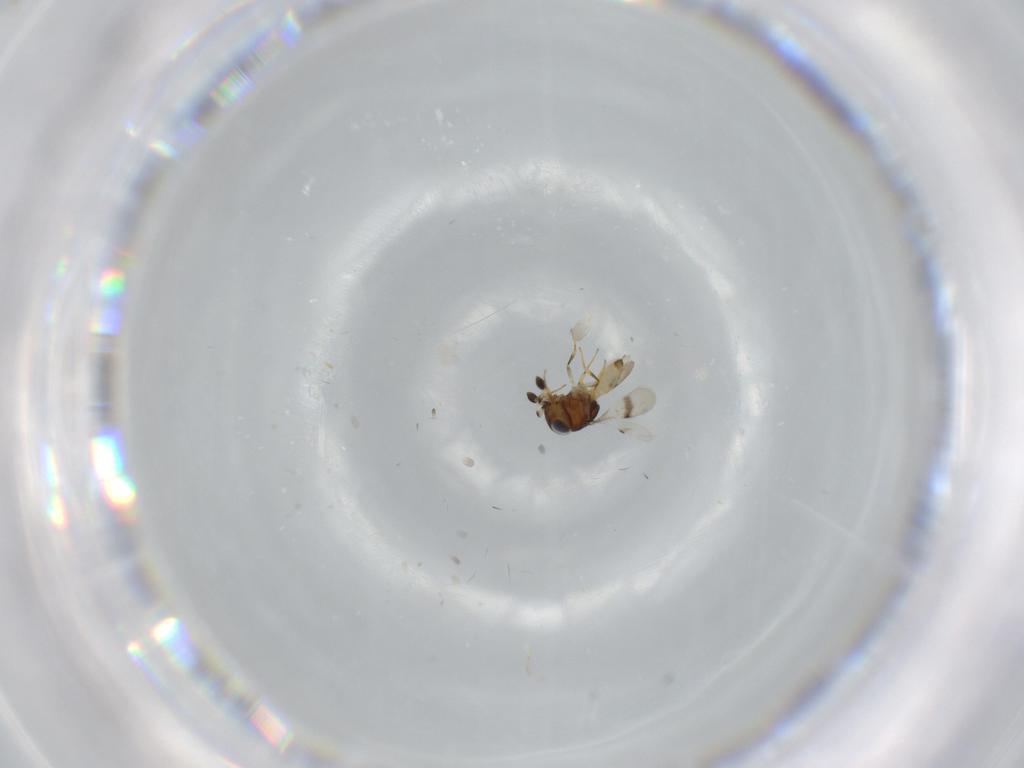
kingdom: Animalia
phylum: Arthropoda
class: Arachnida
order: Araneae
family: Pholcidae
